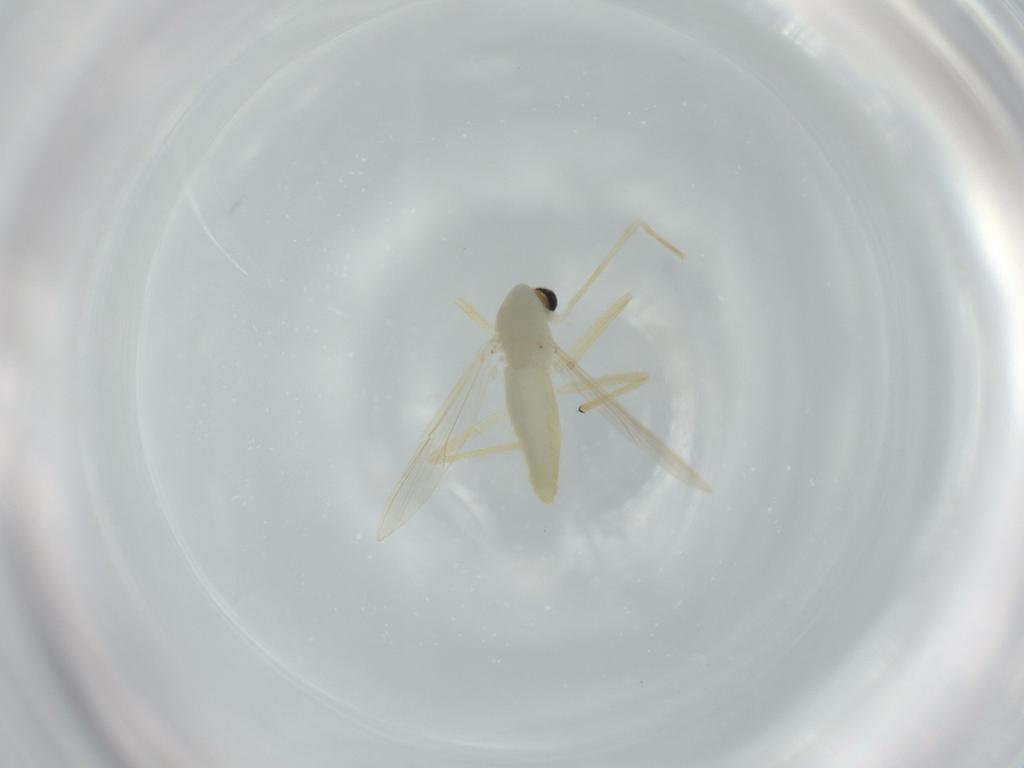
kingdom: Animalia
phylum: Arthropoda
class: Insecta
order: Diptera
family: Chironomidae
